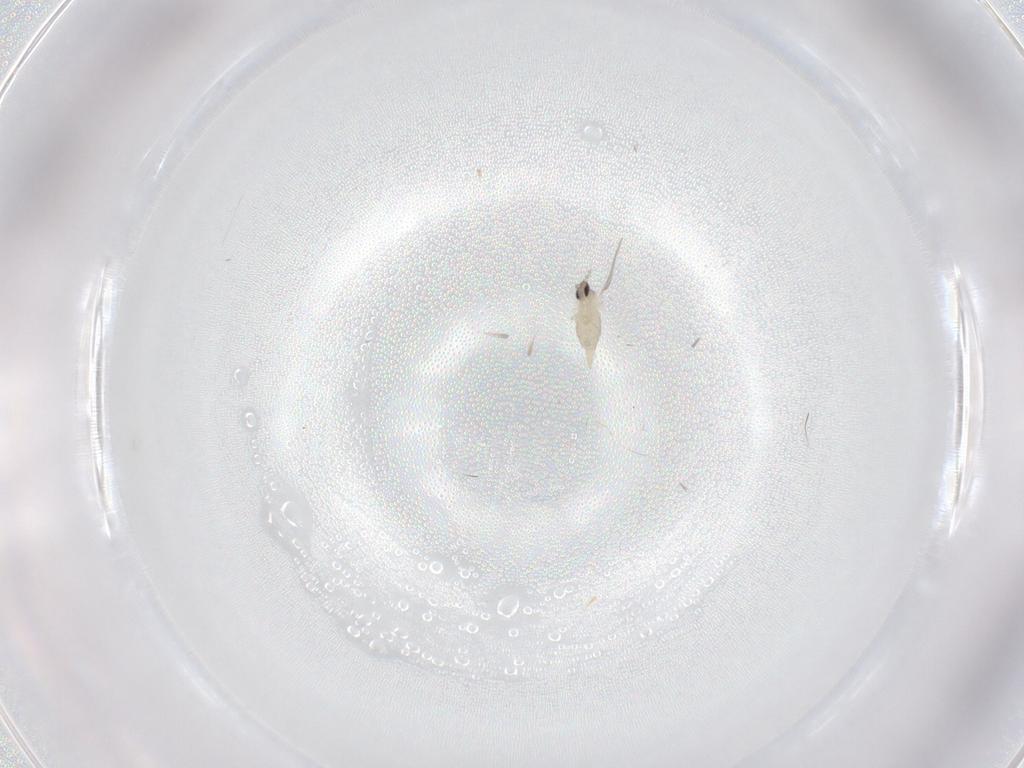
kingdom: Animalia
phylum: Arthropoda
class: Insecta
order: Diptera
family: Cecidomyiidae
